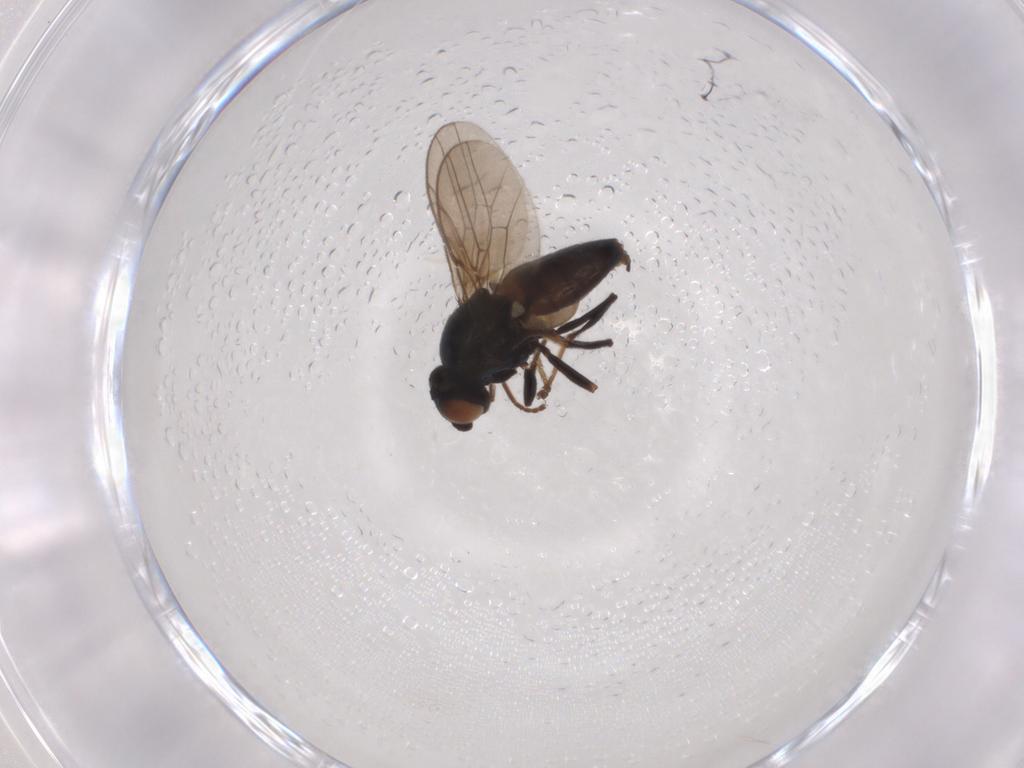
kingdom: Animalia
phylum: Arthropoda
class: Insecta
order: Diptera
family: Chloropidae
